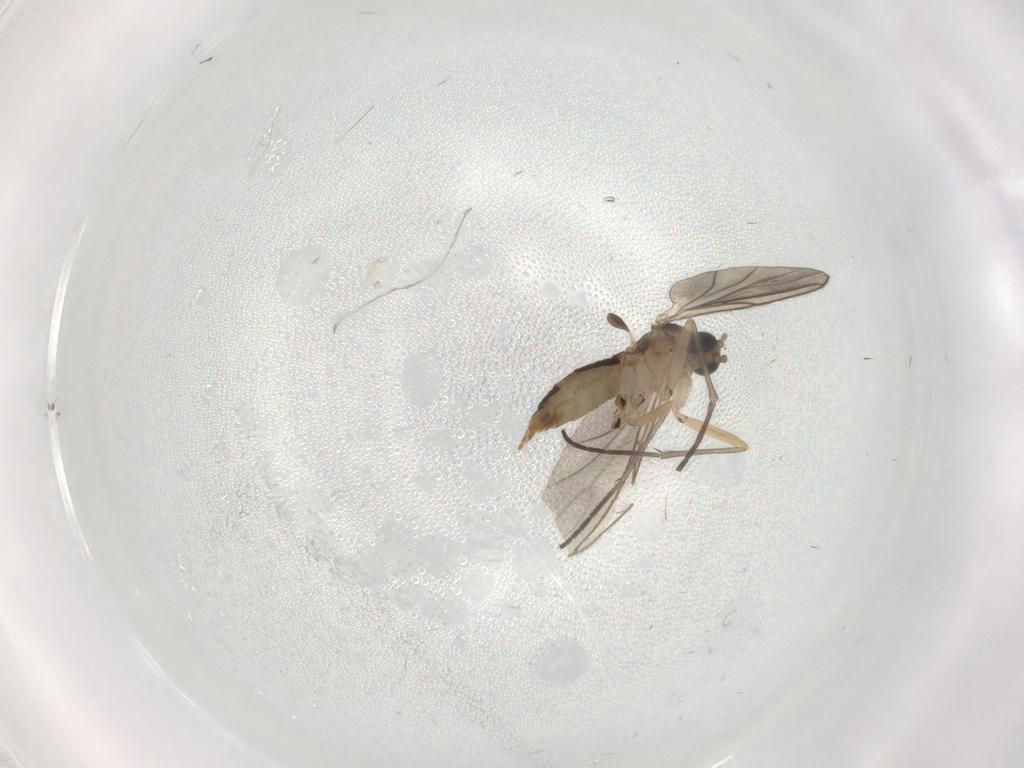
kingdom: Animalia
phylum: Arthropoda
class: Insecta
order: Diptera
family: Sciaridae
